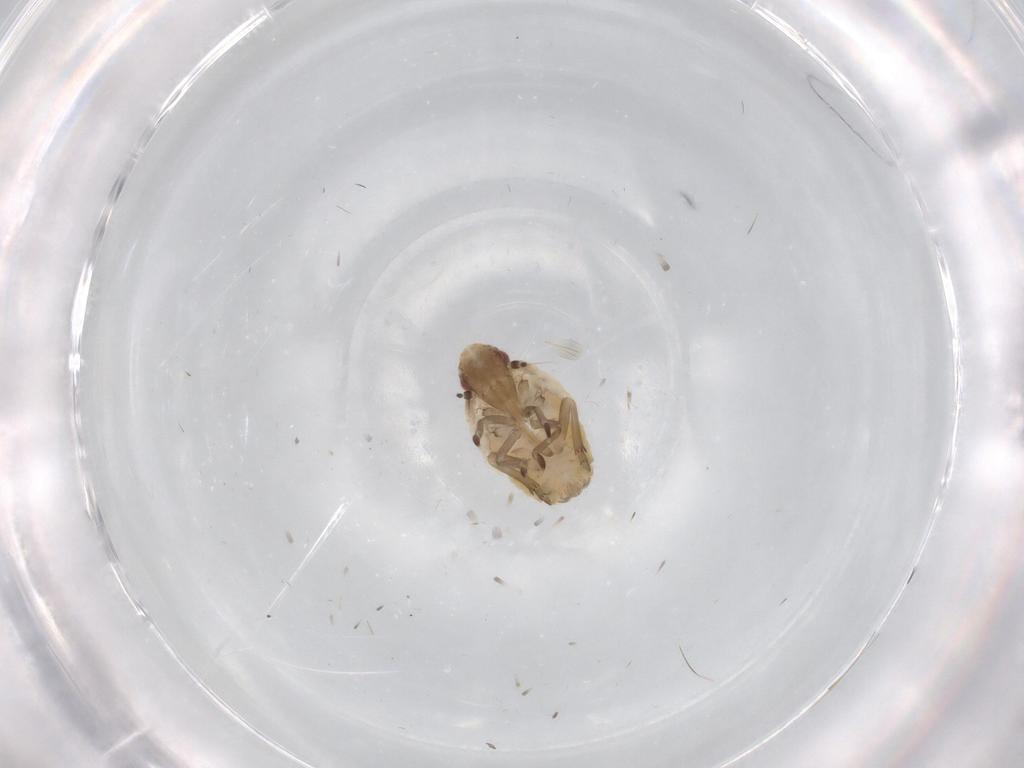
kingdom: Animalia
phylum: Arthropoda
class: Insecta
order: Hemiptera
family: Flatidae
